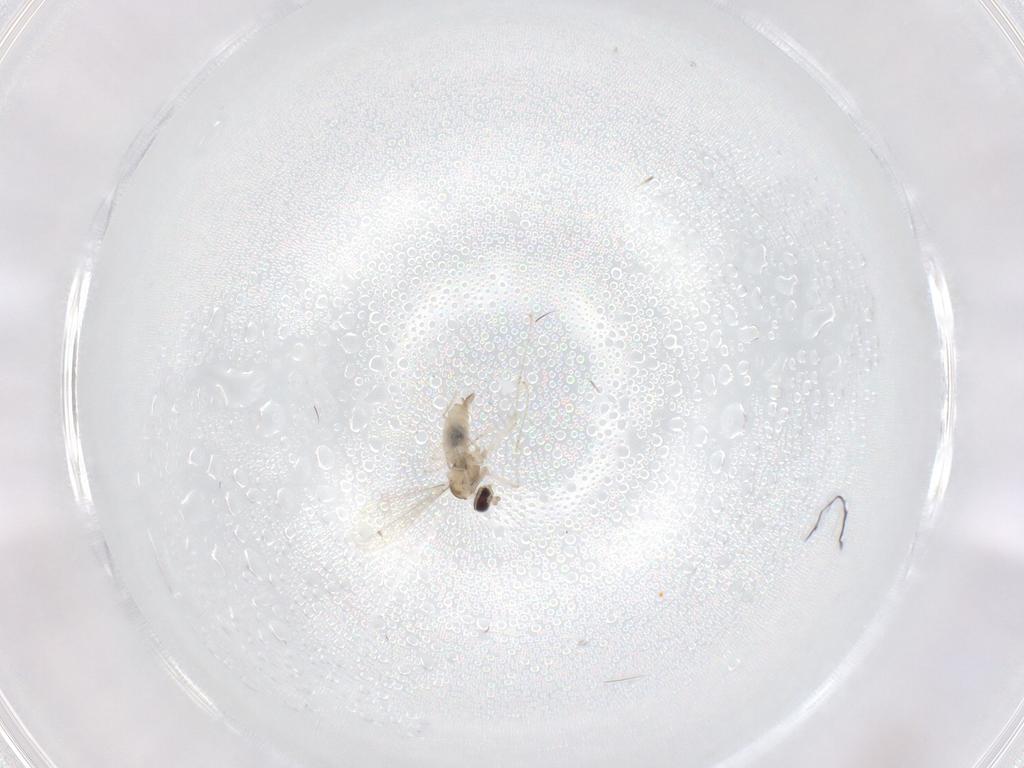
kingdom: Animalia
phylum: Arthropoda
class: Insecta
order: Diptera
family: Cecidomyiidae
